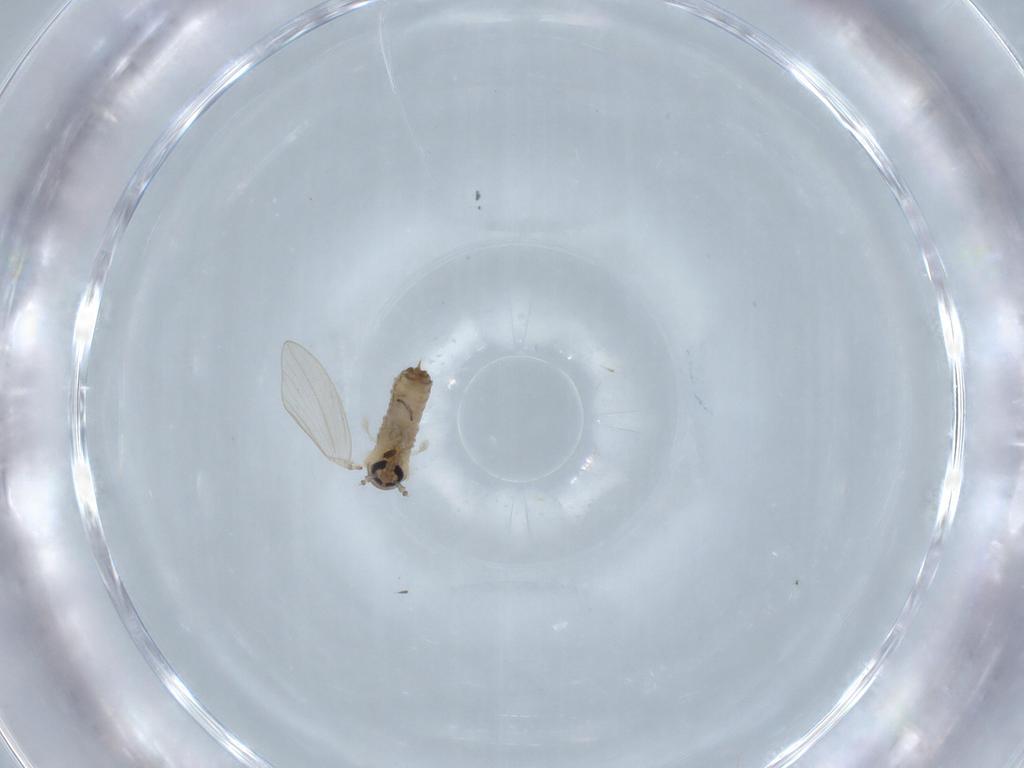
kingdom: Animalia
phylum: Arthropoda
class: Insecta
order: Diptera
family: Psychodidae
